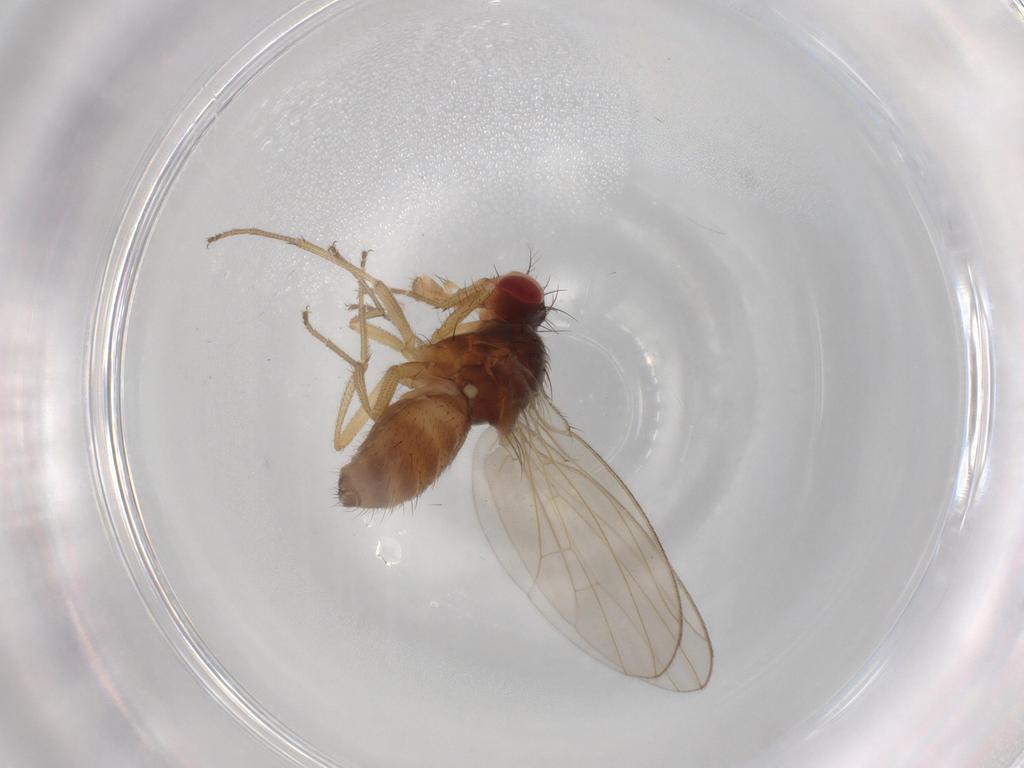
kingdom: Animalia
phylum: Arthropoda
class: Insecta
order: Diptera
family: Drosophilidae
